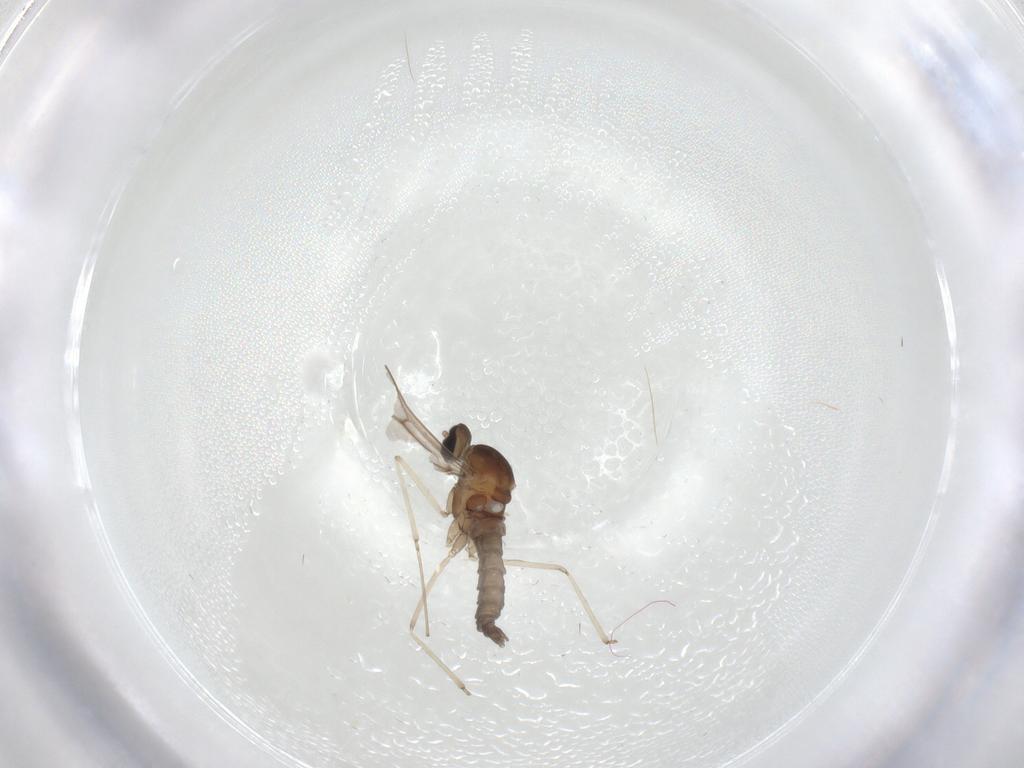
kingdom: Animalia
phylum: Arthropoda
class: Insecta
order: Diptera
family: Cecidomyiidae
